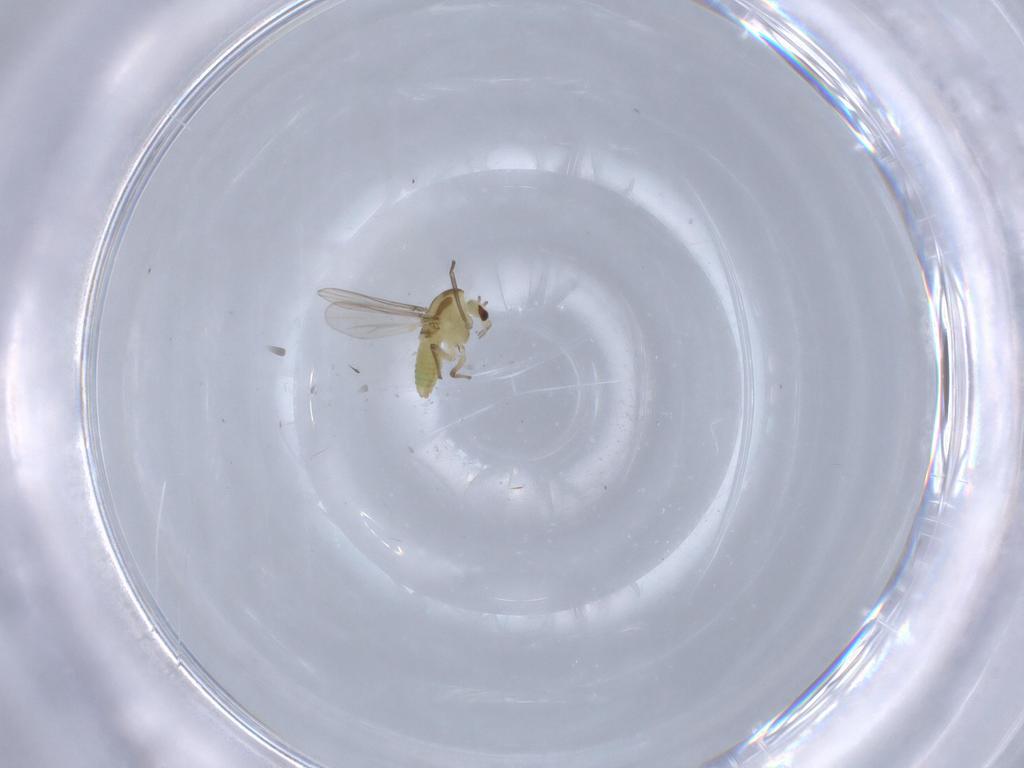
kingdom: Animalia
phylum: Arthropoda
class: Insecta
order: Diptera
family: Chironomidae
